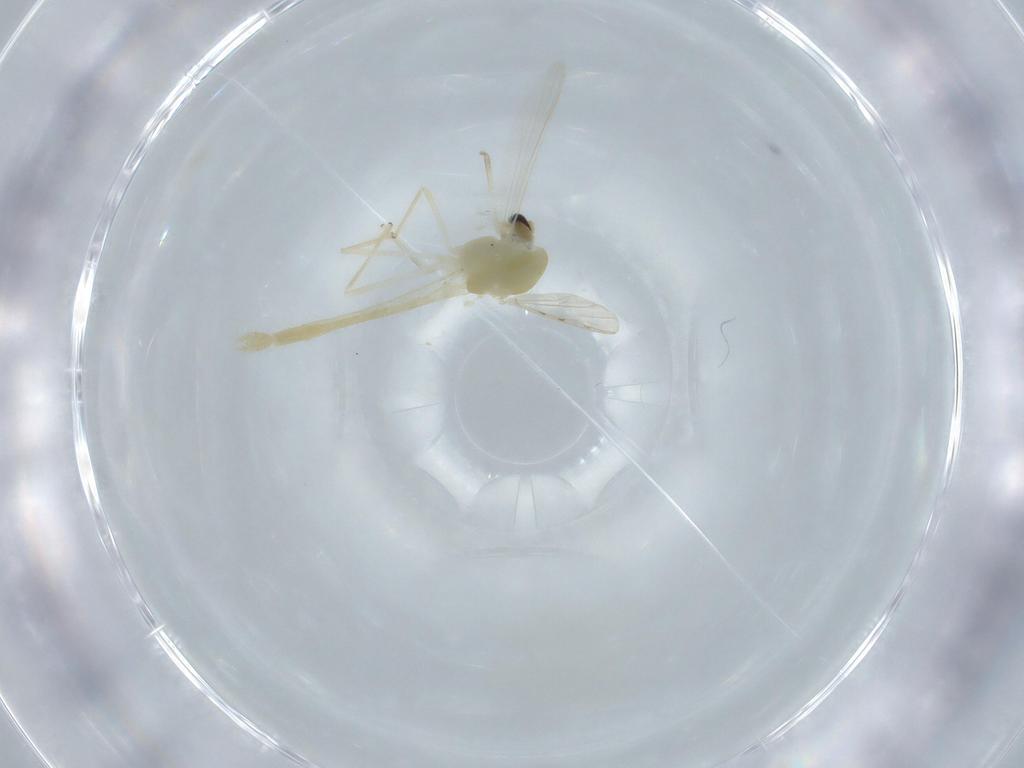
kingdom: Animalia
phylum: Arthropoda
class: Insecta
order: Diptera
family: Chironomidae
